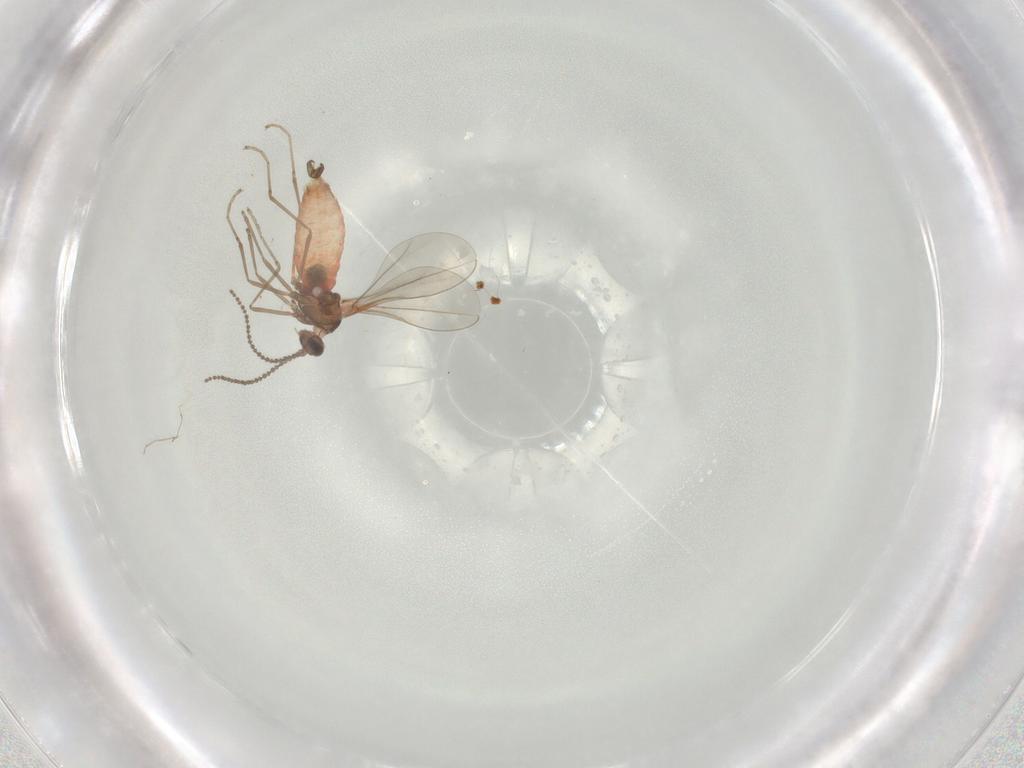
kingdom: Animalia
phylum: Arthropoda
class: Insecta
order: Diptera
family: Cecidomyiidae
